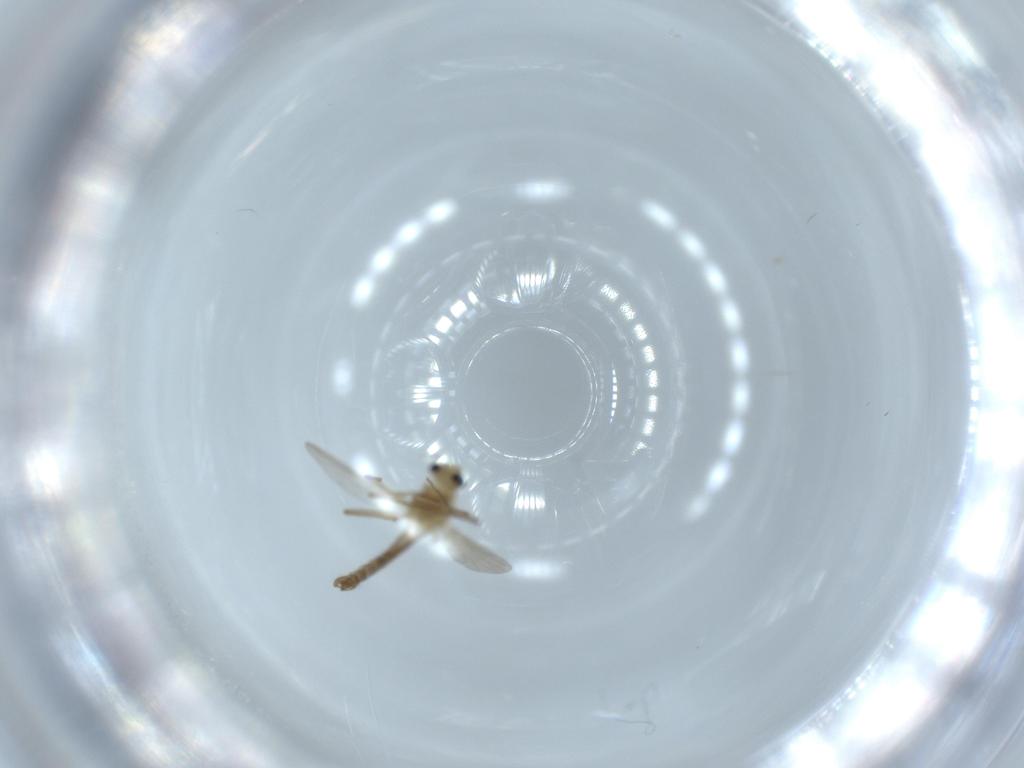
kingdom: Animalia
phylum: Arthropoda
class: Insecta
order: Diptera
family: Chironomidae
